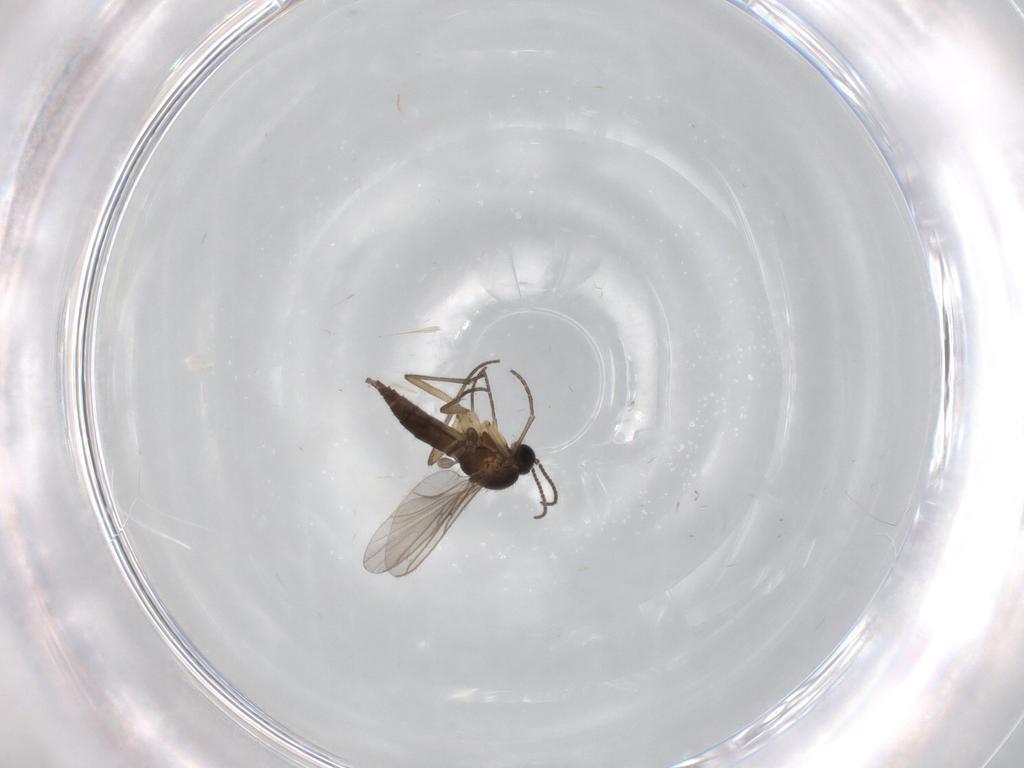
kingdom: Animalia
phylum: Arthropoda
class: Insecta
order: Diptera
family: Sciaridae
